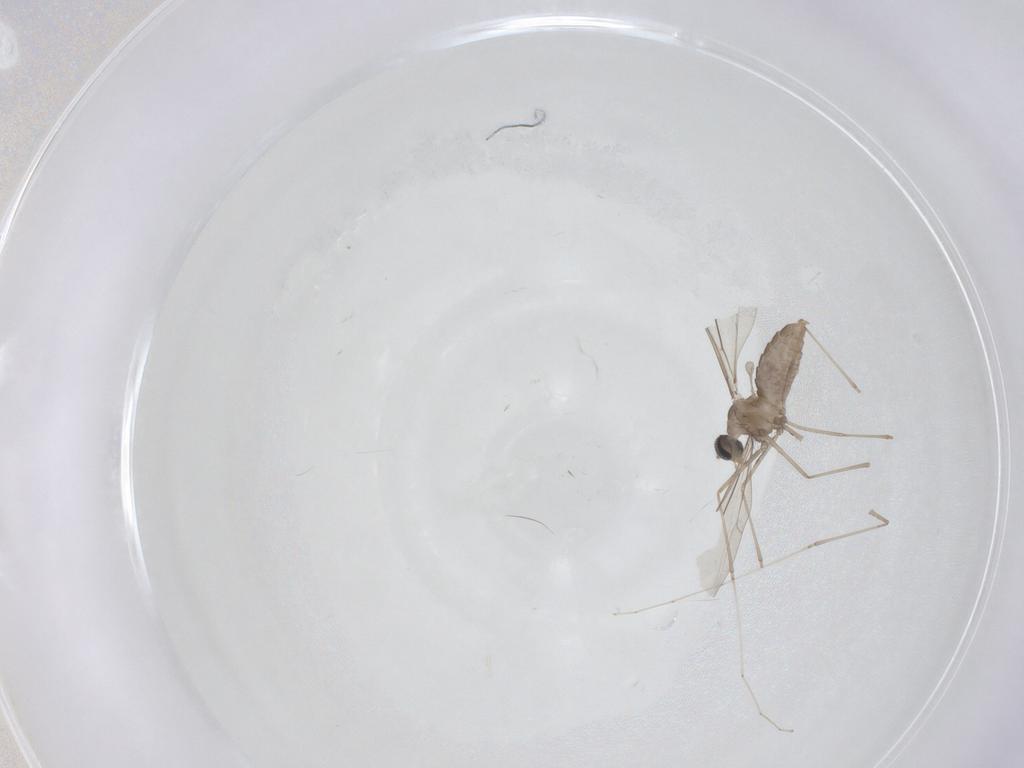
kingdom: Animalia
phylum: Arthropoda
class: Insecta
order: Diptera
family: Cecidomyiidae
